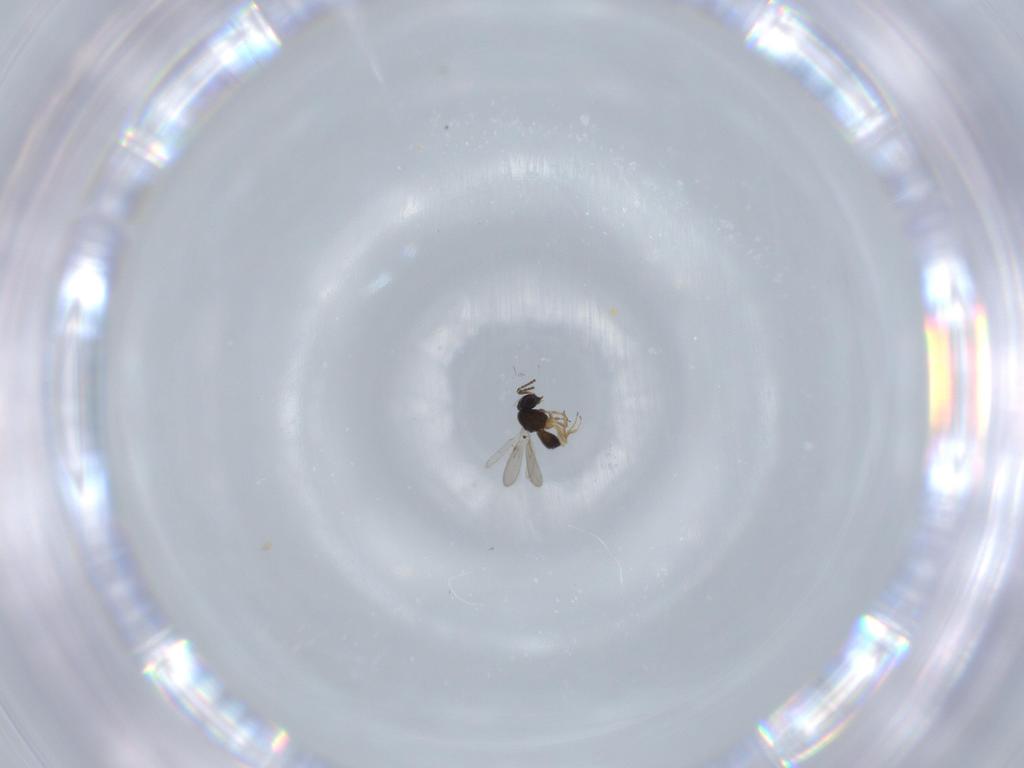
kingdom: Animalia
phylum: Arthropoda
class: Insecta
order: Hymenoptera
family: Scelionidae
